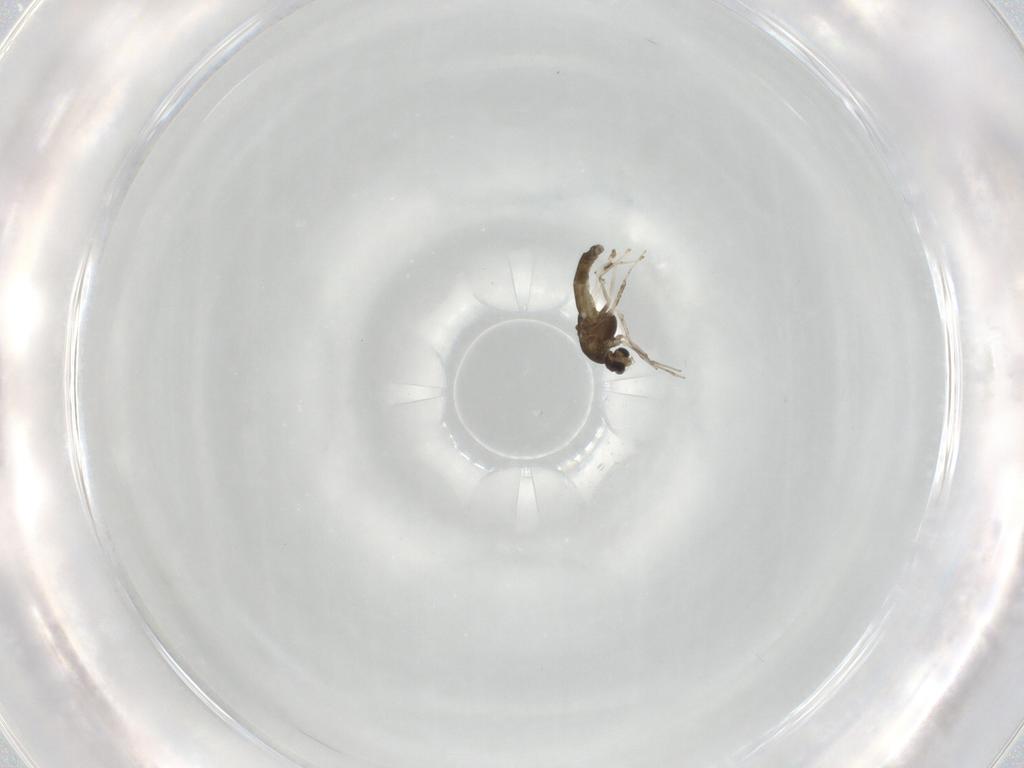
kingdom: Animalia
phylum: Arthropoda
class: Insecta
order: Diptera
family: Chironomidae
